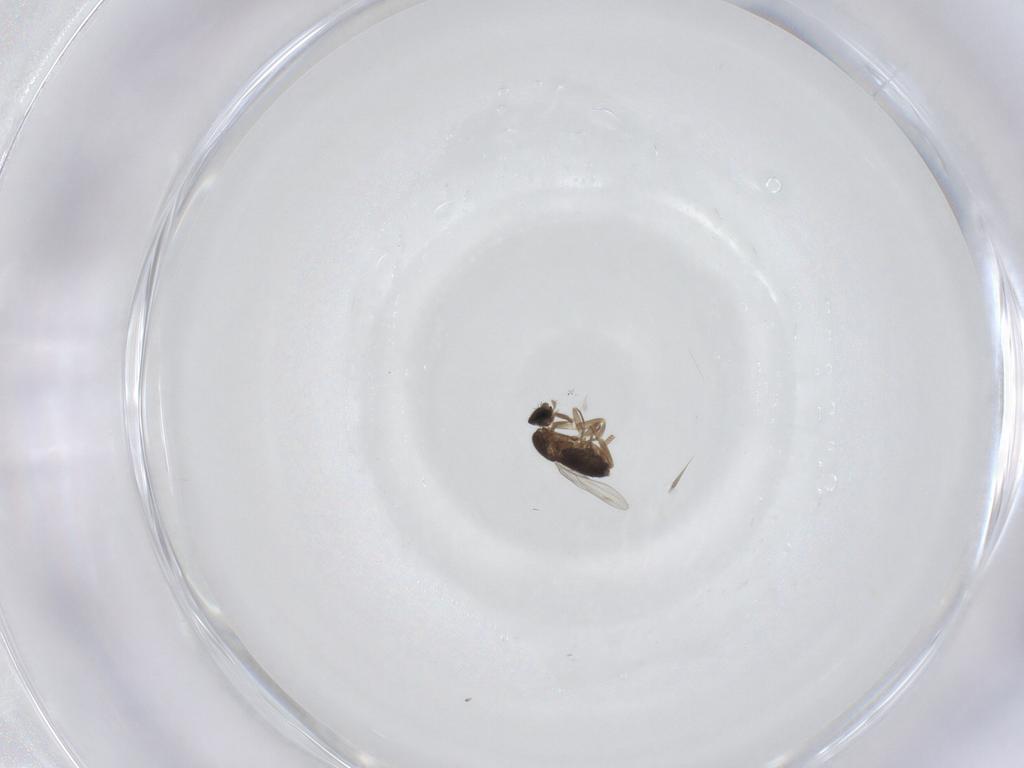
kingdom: Animalia
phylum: Arthropoda
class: Insecta
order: Diptera
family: Phoridae
